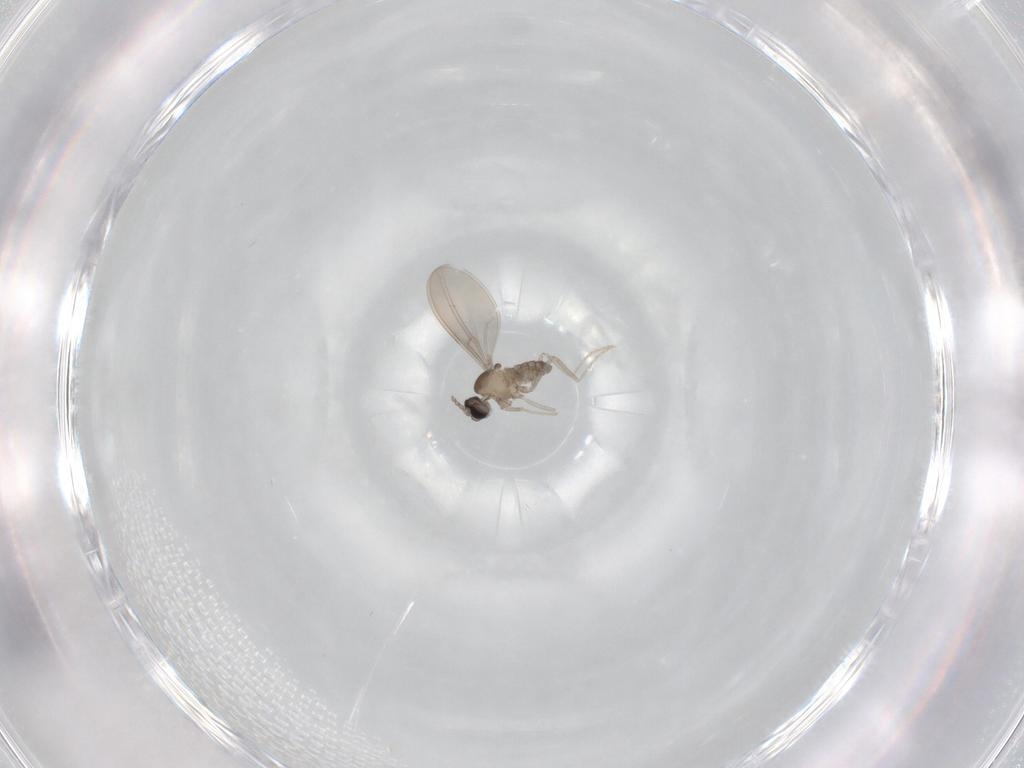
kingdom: Animalia
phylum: Arthropoda
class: Insecta
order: Diptera
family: Cecidomyiidae
